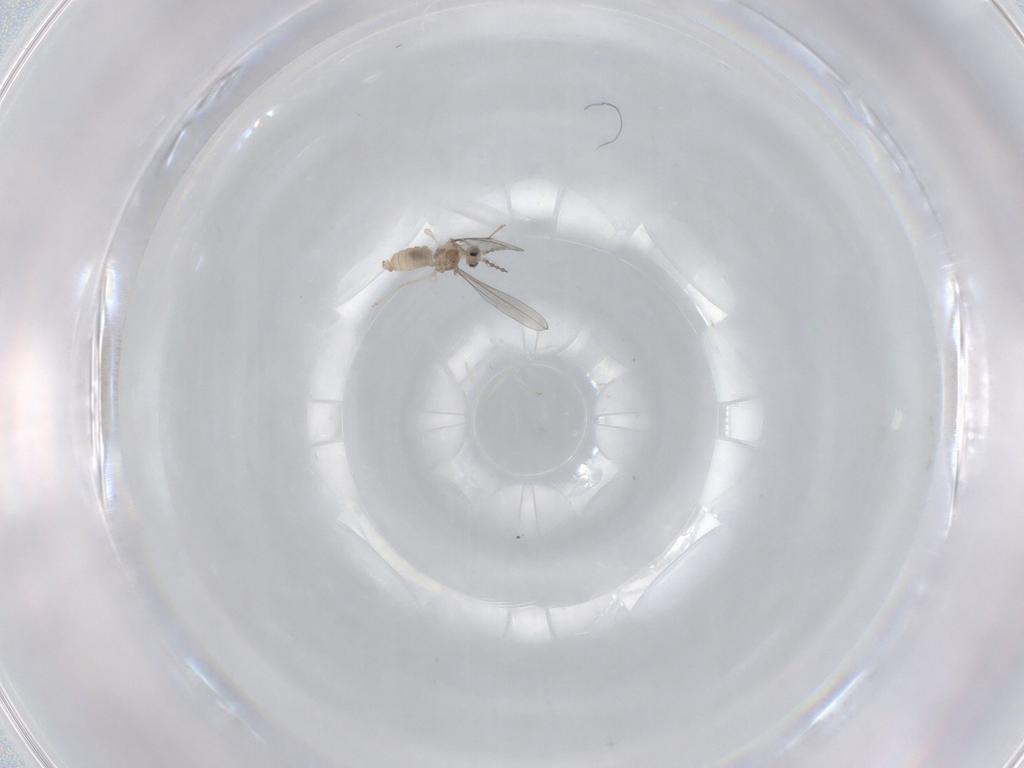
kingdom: Animalia
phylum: Arthropoda
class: Insecta
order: Diptera
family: Cecidomyiidae
